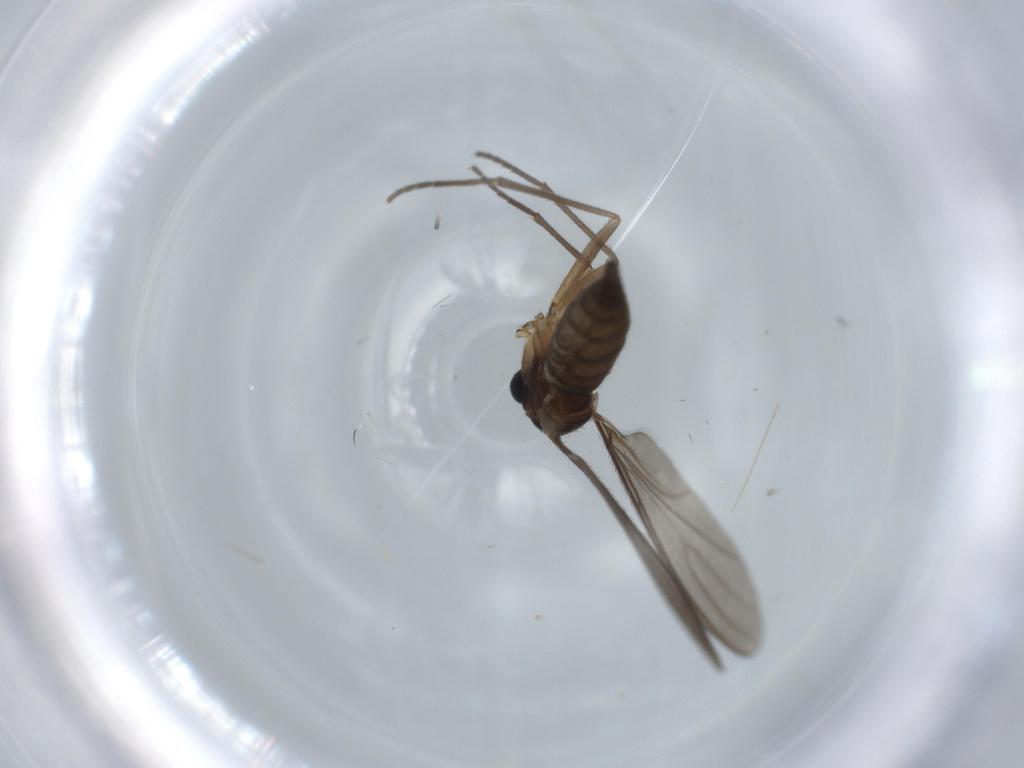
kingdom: Animalia
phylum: Arthropoda
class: Insecta
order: Diptera
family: Sciaridae
